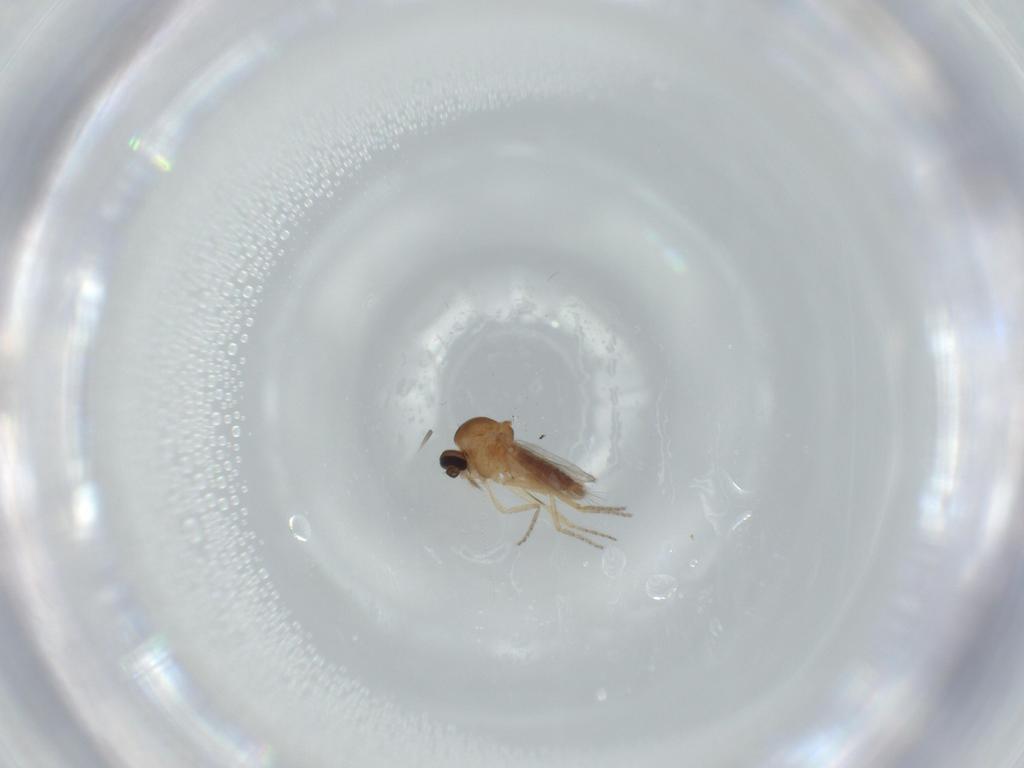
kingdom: Animalia
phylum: Arthropoda
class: Insecta
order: Diptera
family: Ceratopogonidae
